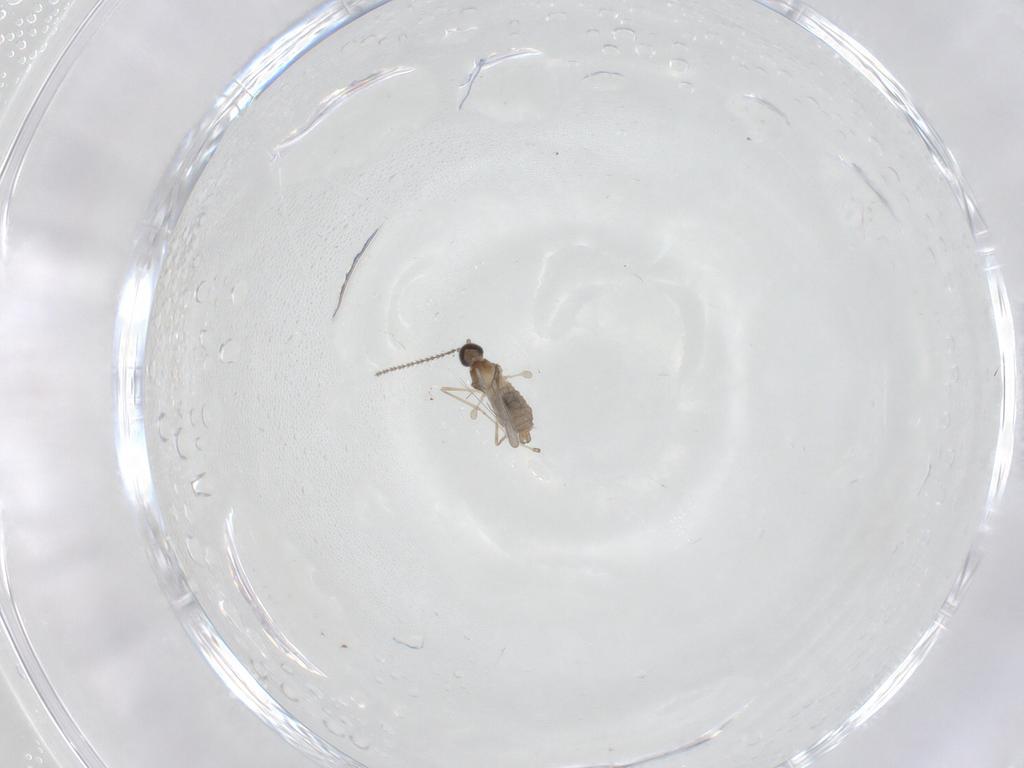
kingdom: Animalia
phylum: Arthropoda
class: Insecta
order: Diptera
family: Cecidomyiidae
